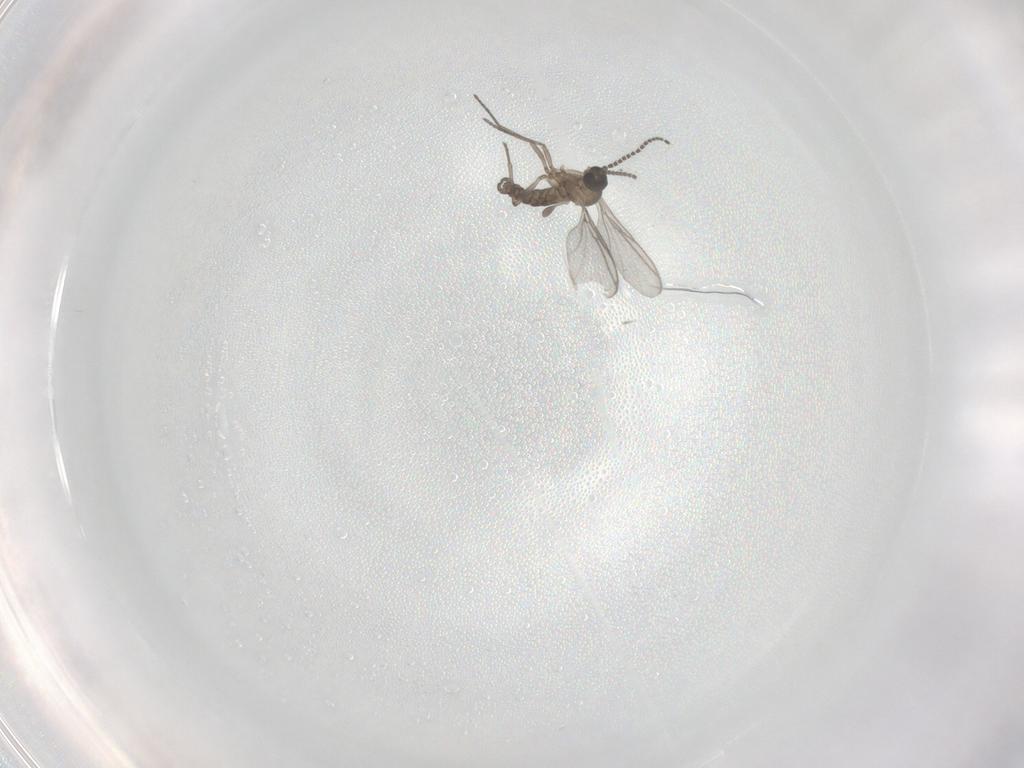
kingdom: Animalia
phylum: Arthropoda
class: Insecta
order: Diptera
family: Sciaridae
